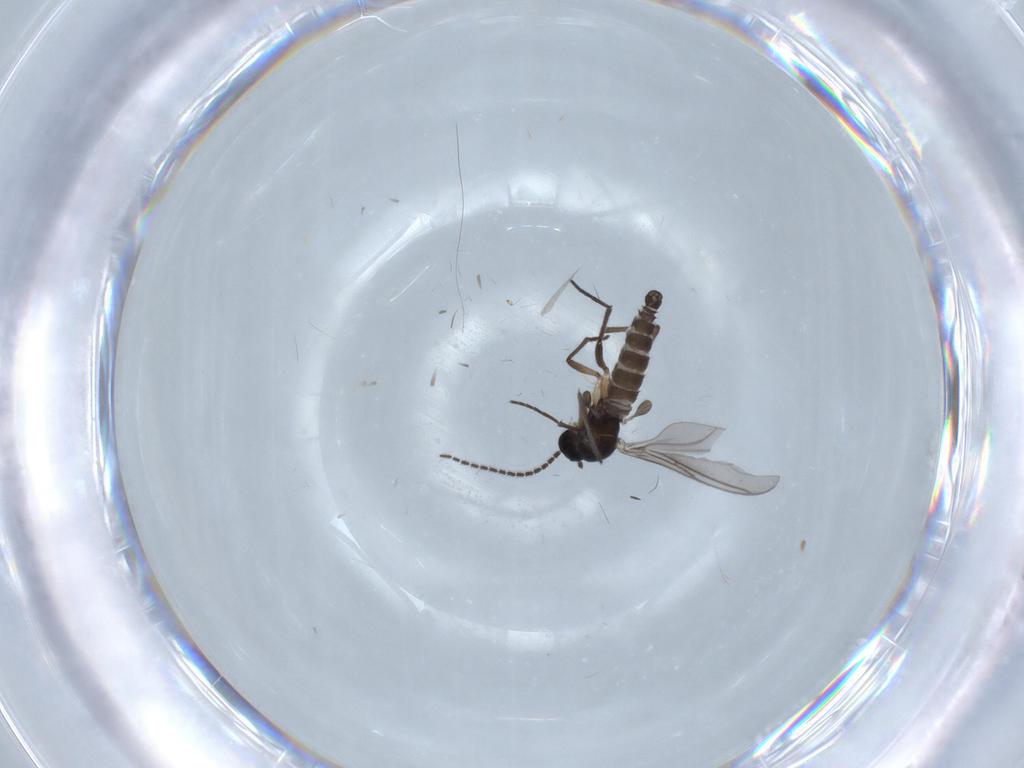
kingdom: Animalia
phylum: Arthropoda
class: Insecta
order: Diptera
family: Sciaridae
